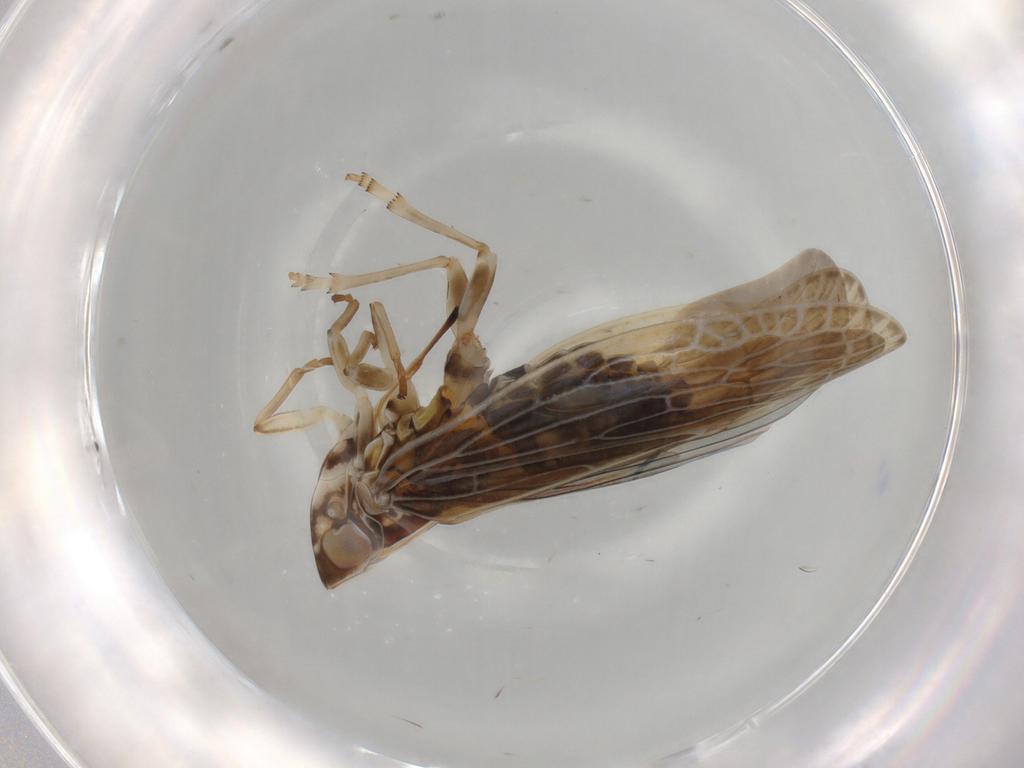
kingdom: Animalia
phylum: Arthropoda
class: Insecta
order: Hemiptera
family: Achilidae
